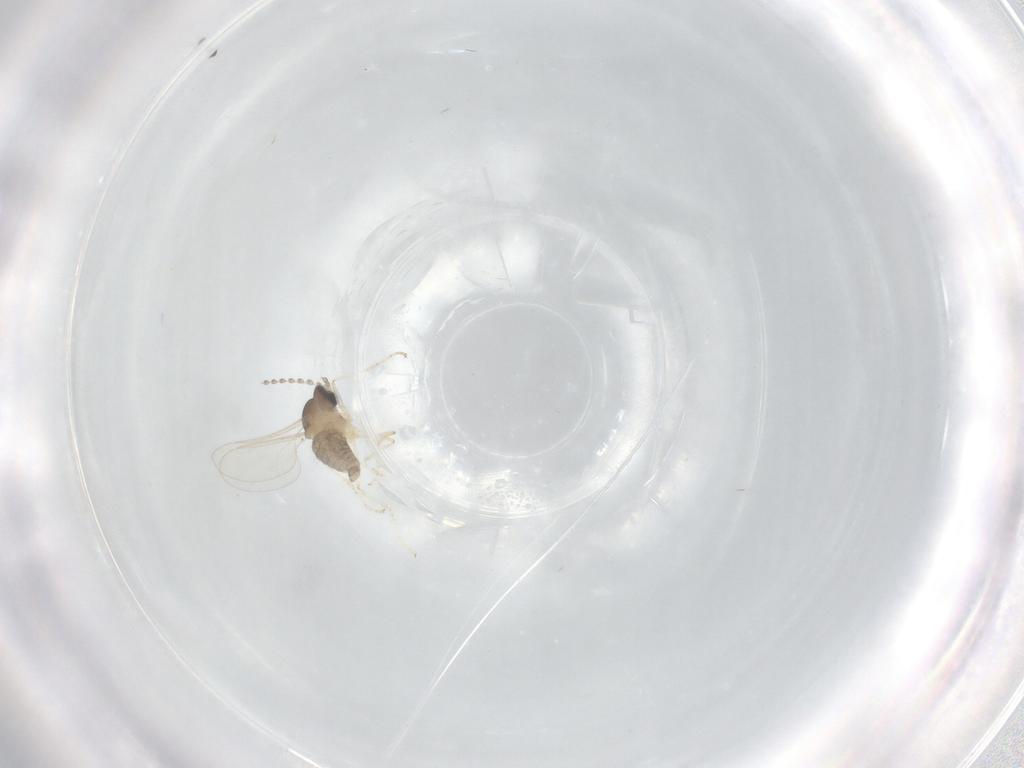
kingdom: Animalia
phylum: Arthropoda
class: Insecta
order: Diptera
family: Cecidomyiidae
